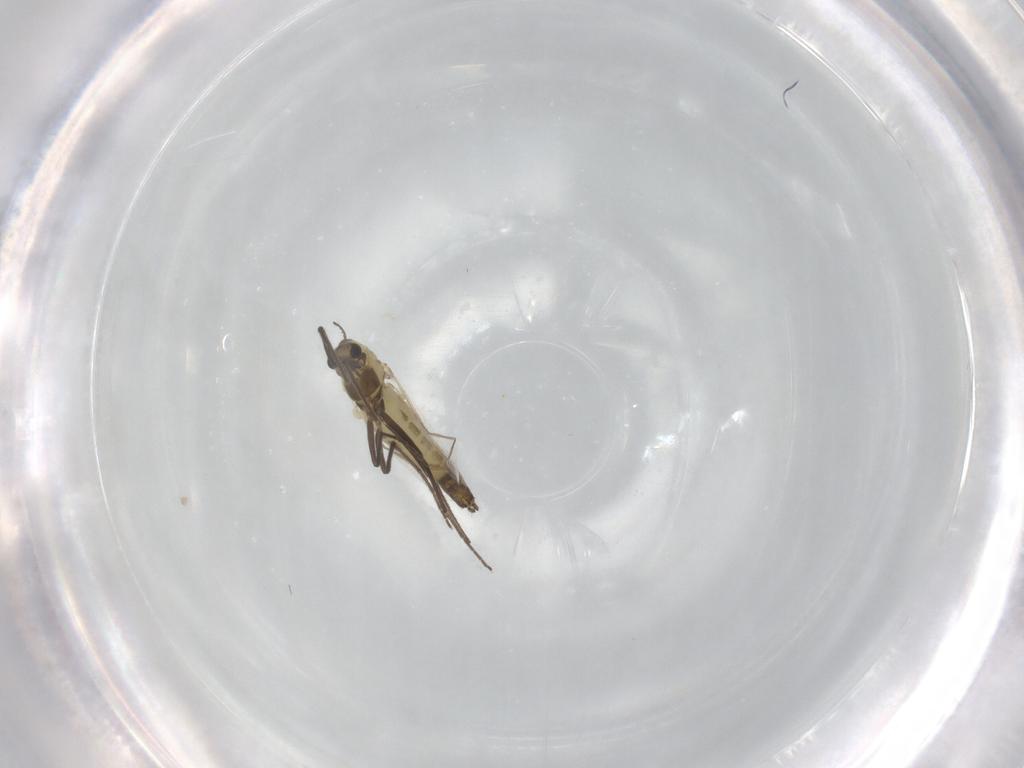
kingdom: Animalia
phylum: Arthropoda
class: Insecta
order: Diptera
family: Chironomidae
